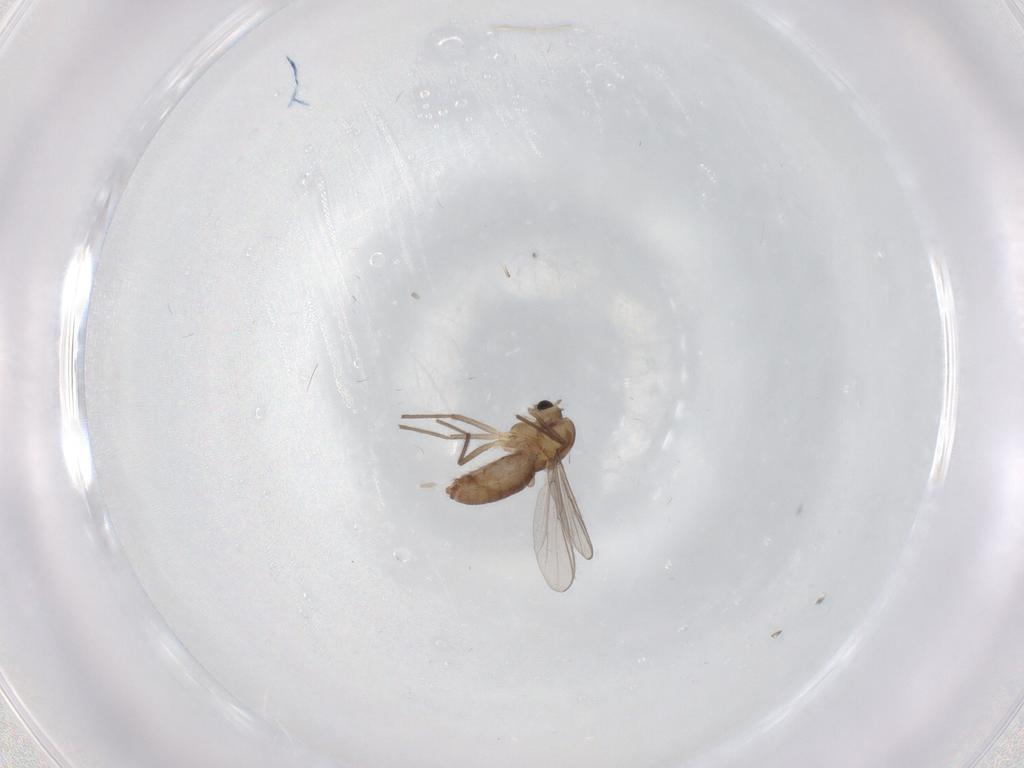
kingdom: Animalia
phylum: Arthropoda
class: Insecta
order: Diptera
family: Chironomidae
